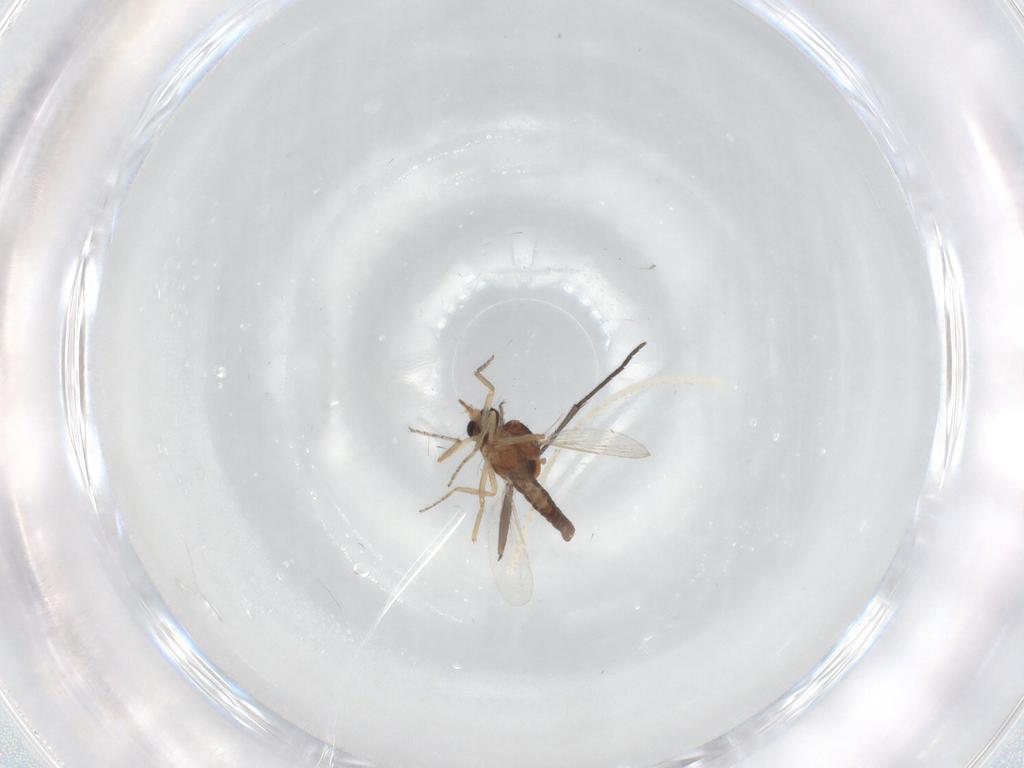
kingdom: Animalia
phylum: Arthropoda
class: Insecta
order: Diptera
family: Ceratopogonidae
